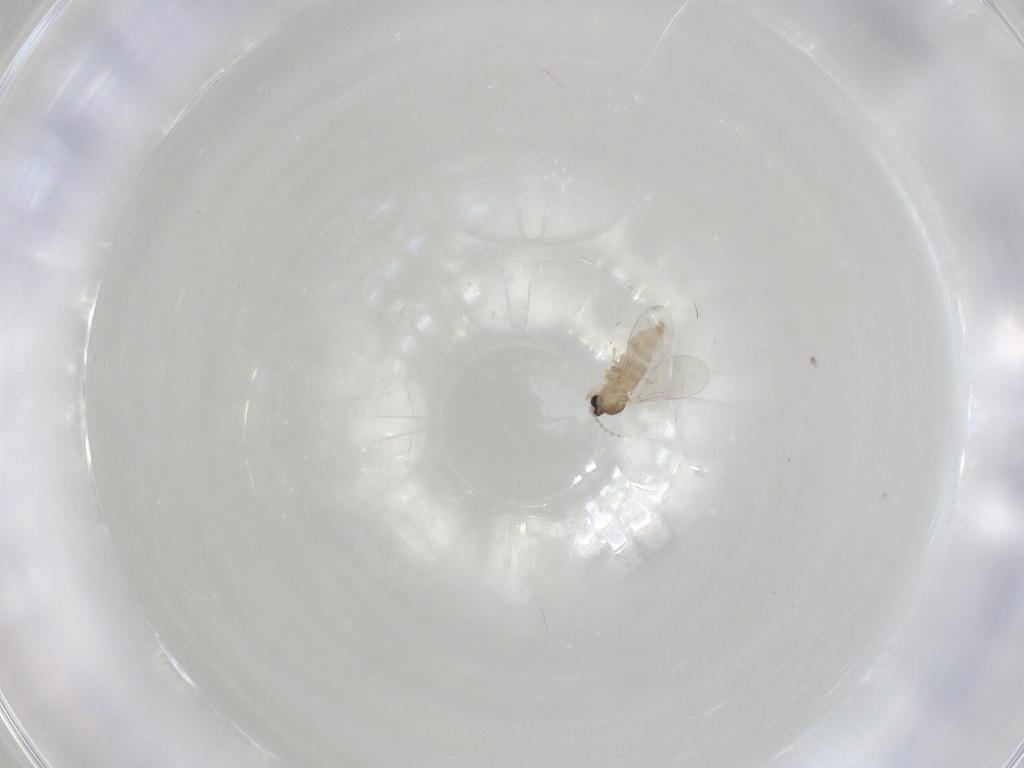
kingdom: Animalia
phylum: Arthropoda
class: Insecta
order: Diptera
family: Cecidomyiidae
